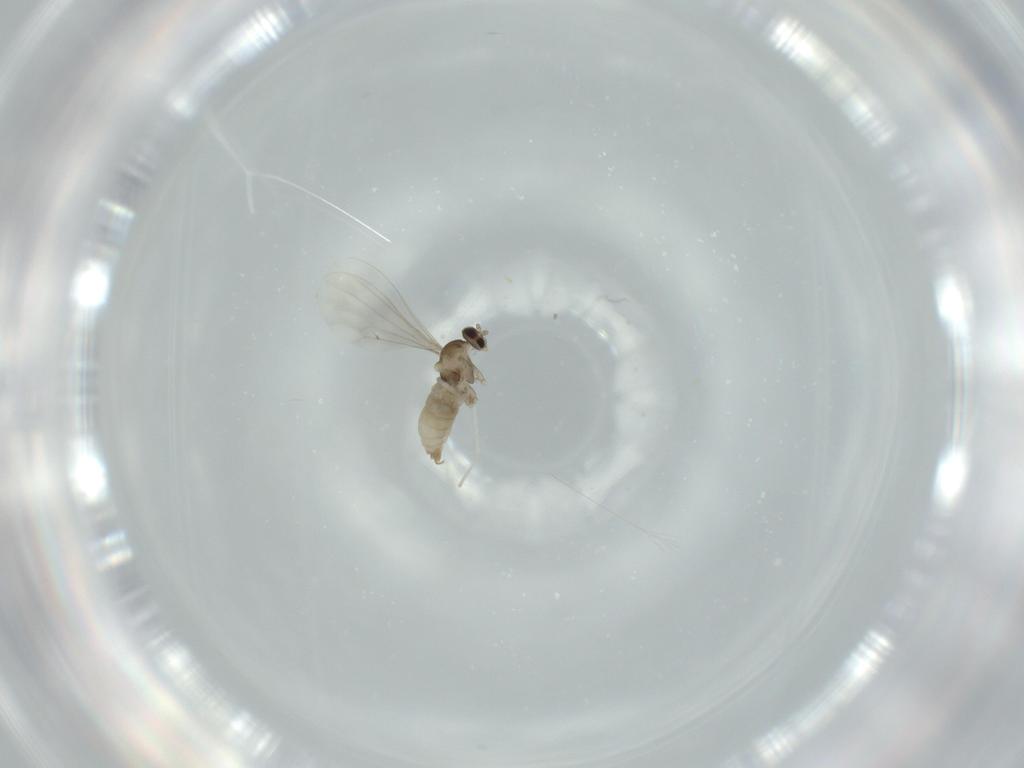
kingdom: Animalia
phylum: Arthropoda
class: Insecta
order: Diptera
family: Cecidomyiidae
